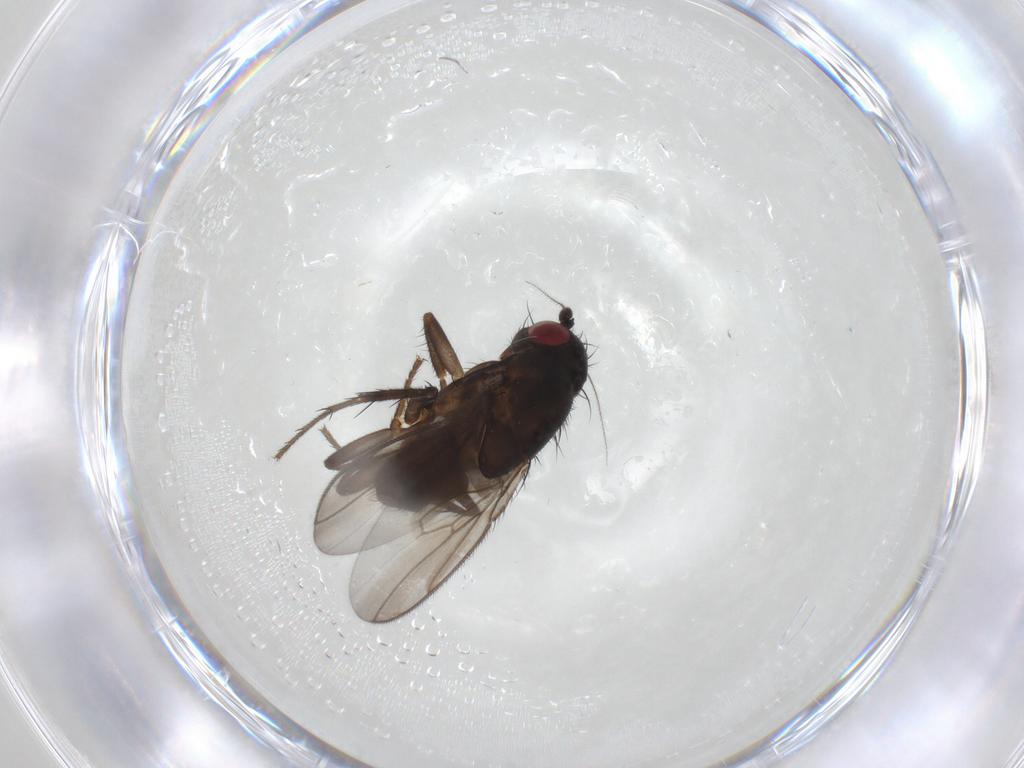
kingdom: Animalia
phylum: Arthropoda
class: Insecta
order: Diptera
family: Sphaeroceridae
